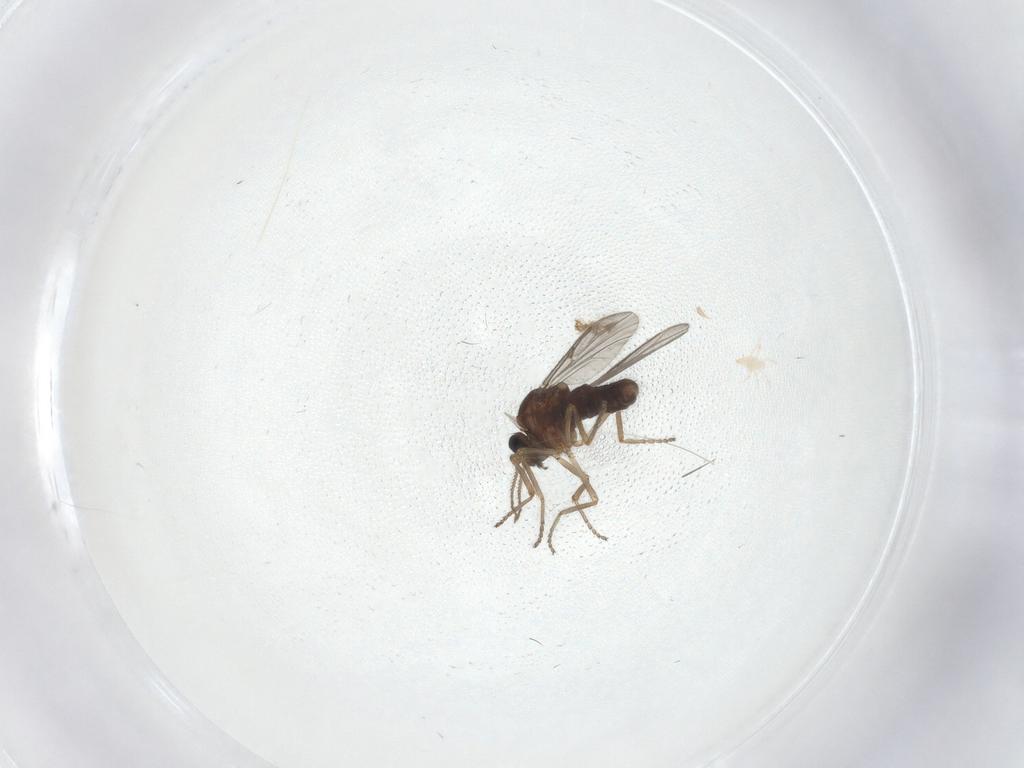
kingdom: Animalia
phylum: Arthropoda
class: Insecta
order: Diptera
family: Ceratopogonidae
